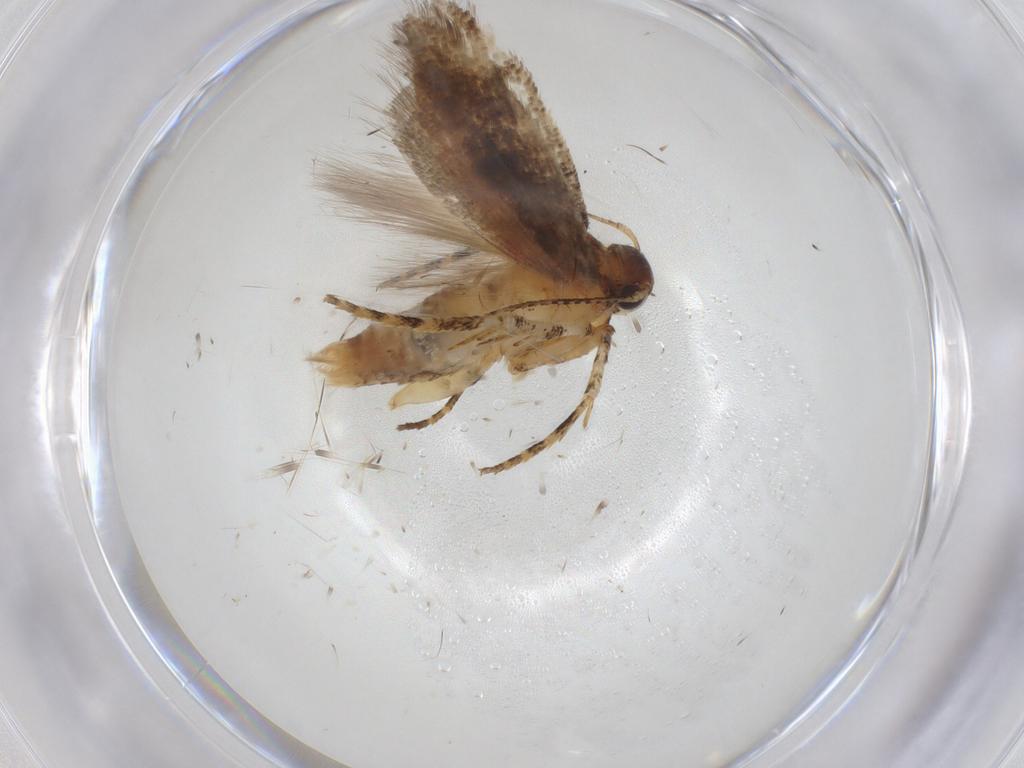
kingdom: Animalia
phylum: Arthropoda
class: Insecta
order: Lepidoptera
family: Gelechiidae
